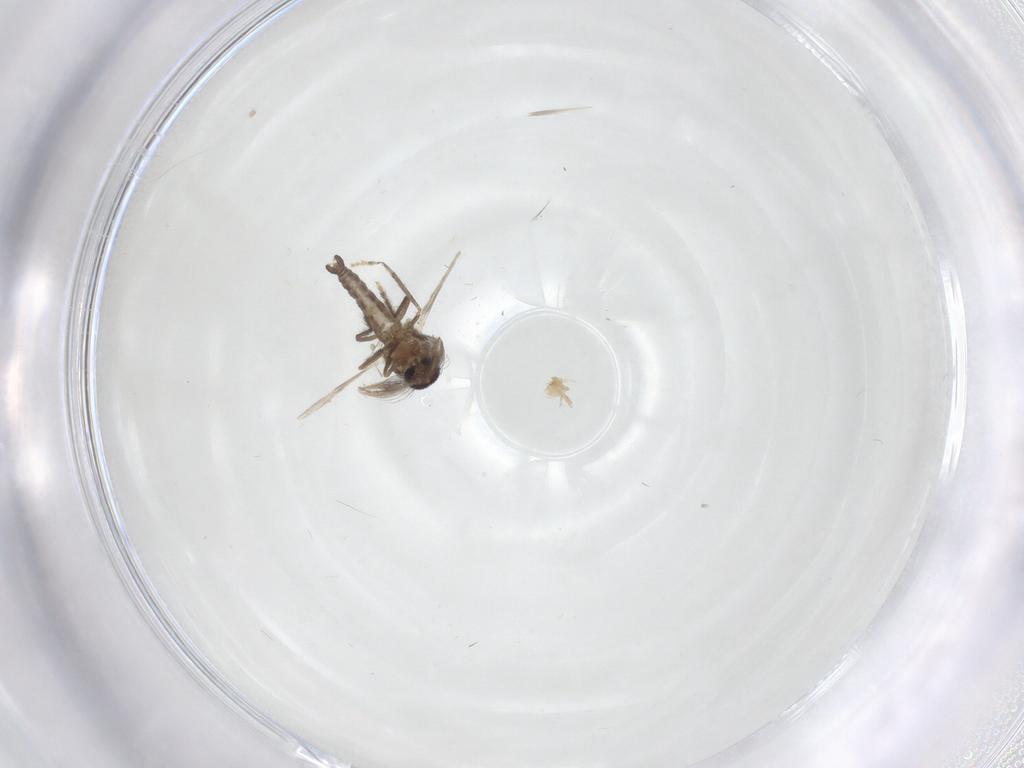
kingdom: Animalia
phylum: Arthropoda
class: Insecta
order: Diptera
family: Ceratopogonidae
